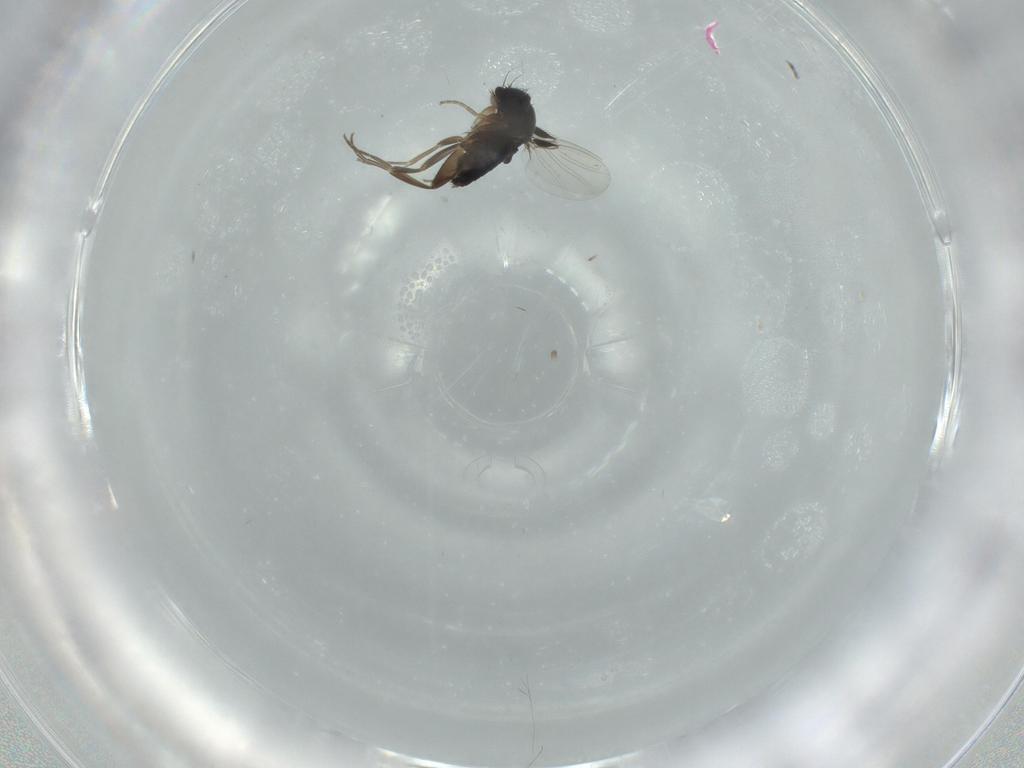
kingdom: Animalia
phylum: Arthropoda
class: Insecta
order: Diptera
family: Phoridae
